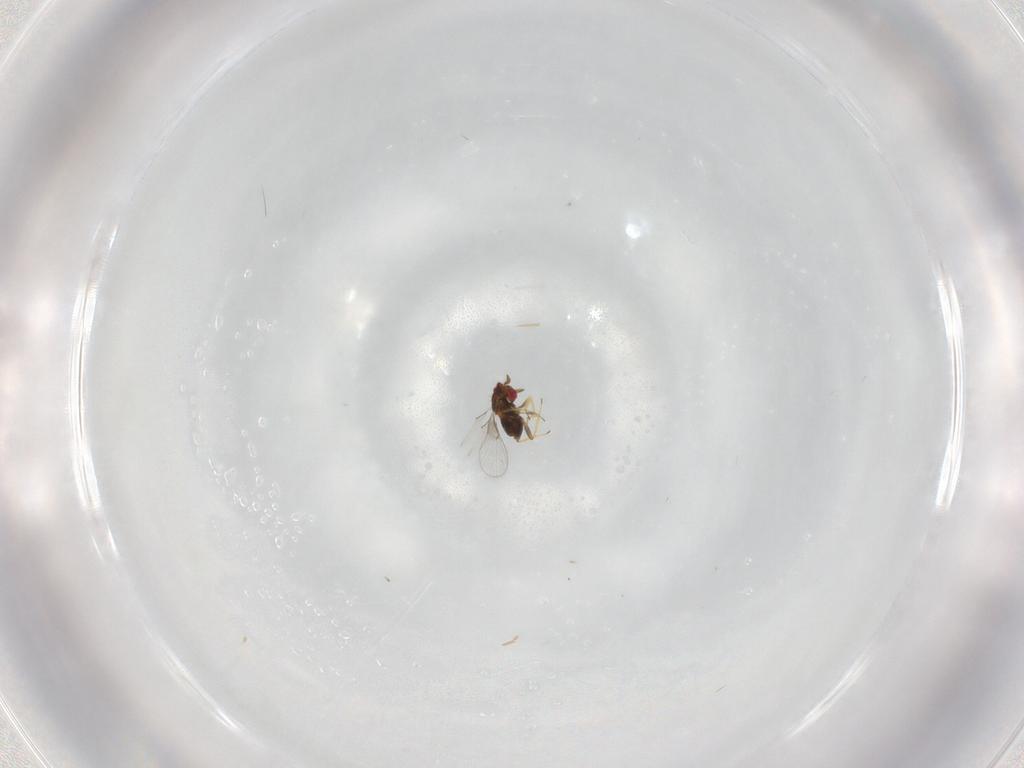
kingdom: Animalia
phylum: Arthropoda
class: Insecta
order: Hymenoptera
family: Trichogrammatidae
